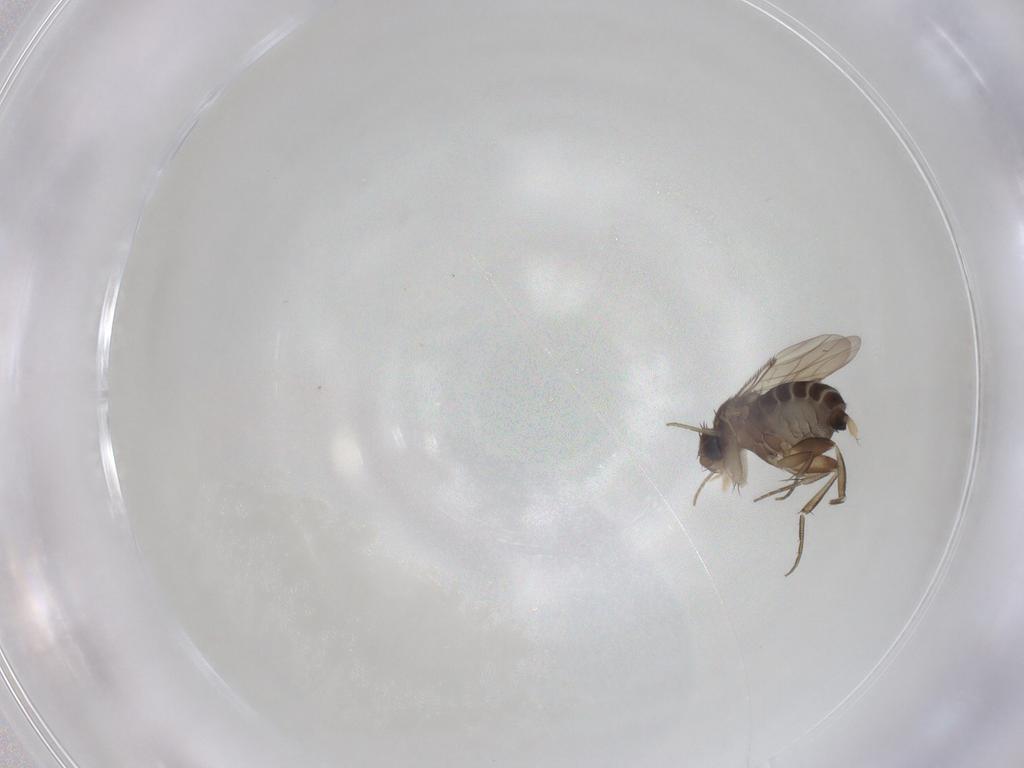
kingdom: Animalia
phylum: Arthropoda
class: Insecta
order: Diptera
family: Phoridae
